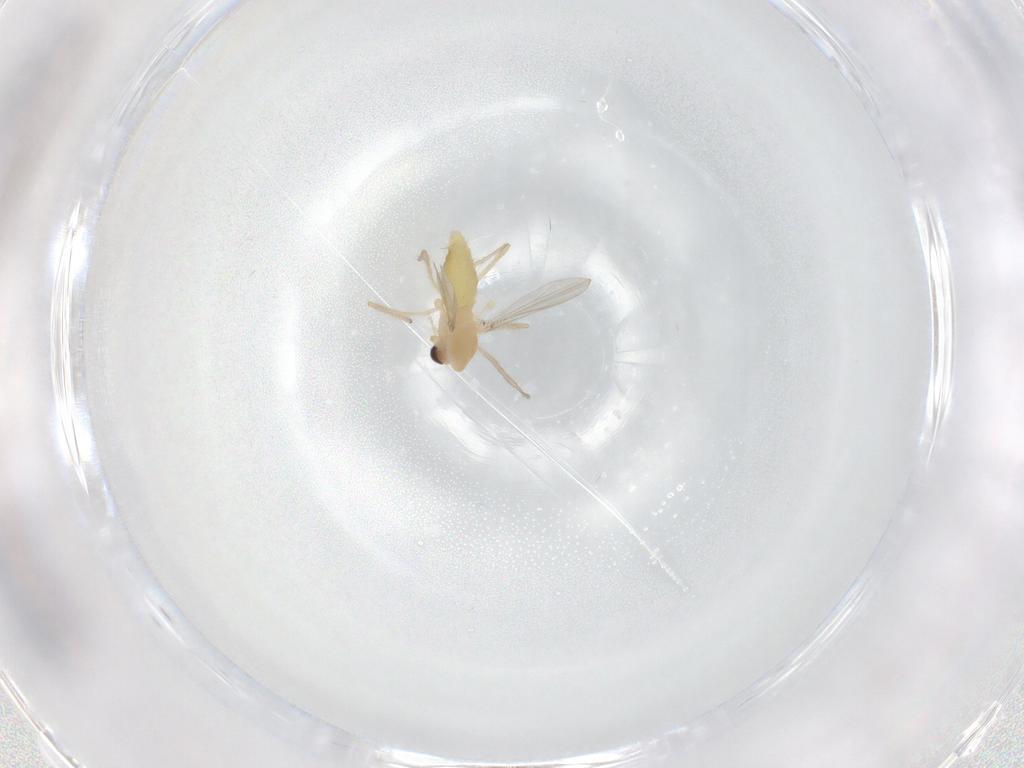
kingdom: Animalia
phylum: Arthropoda
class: Insecta
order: Diptera
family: Chironomidae
